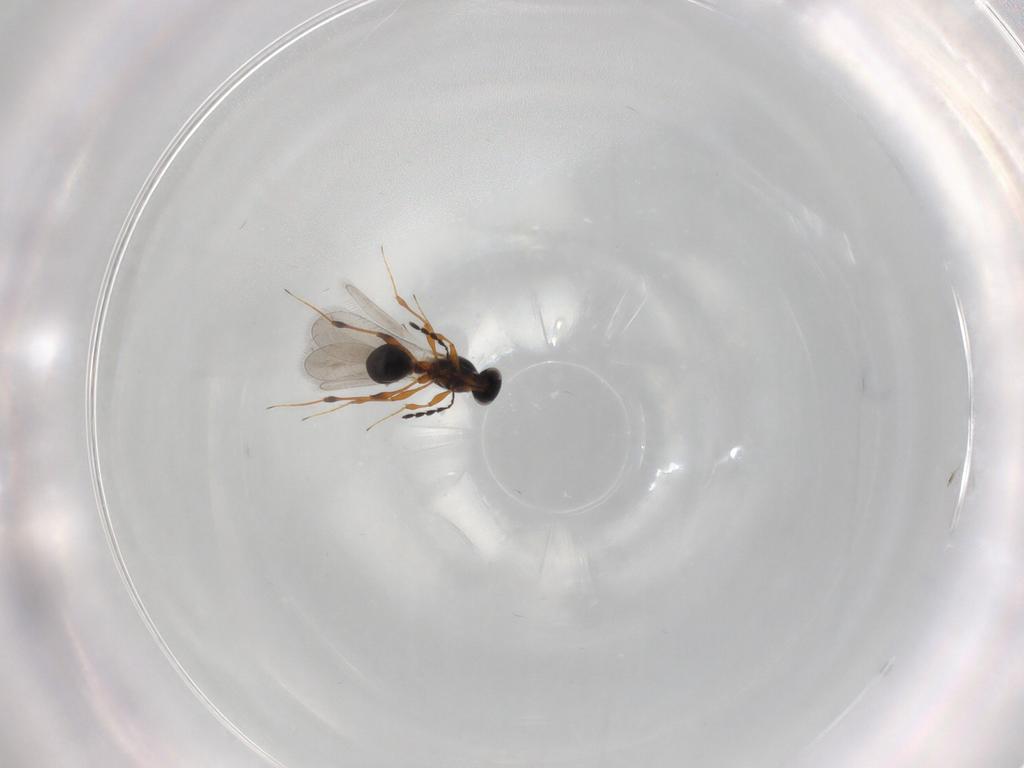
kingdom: Animalia
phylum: Arthropoda
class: Insecta
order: Hymenoptera
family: Platygastridae
